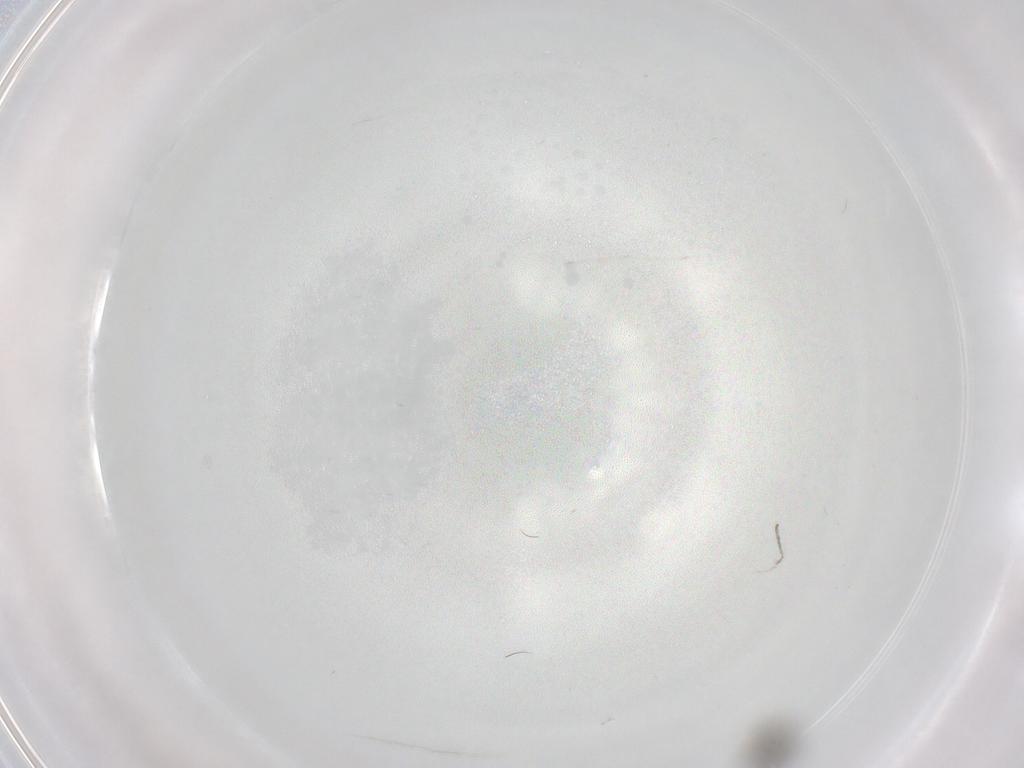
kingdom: Animalia
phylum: Arthropoda
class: Insecta
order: Diptera
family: Cecidomyiidae
